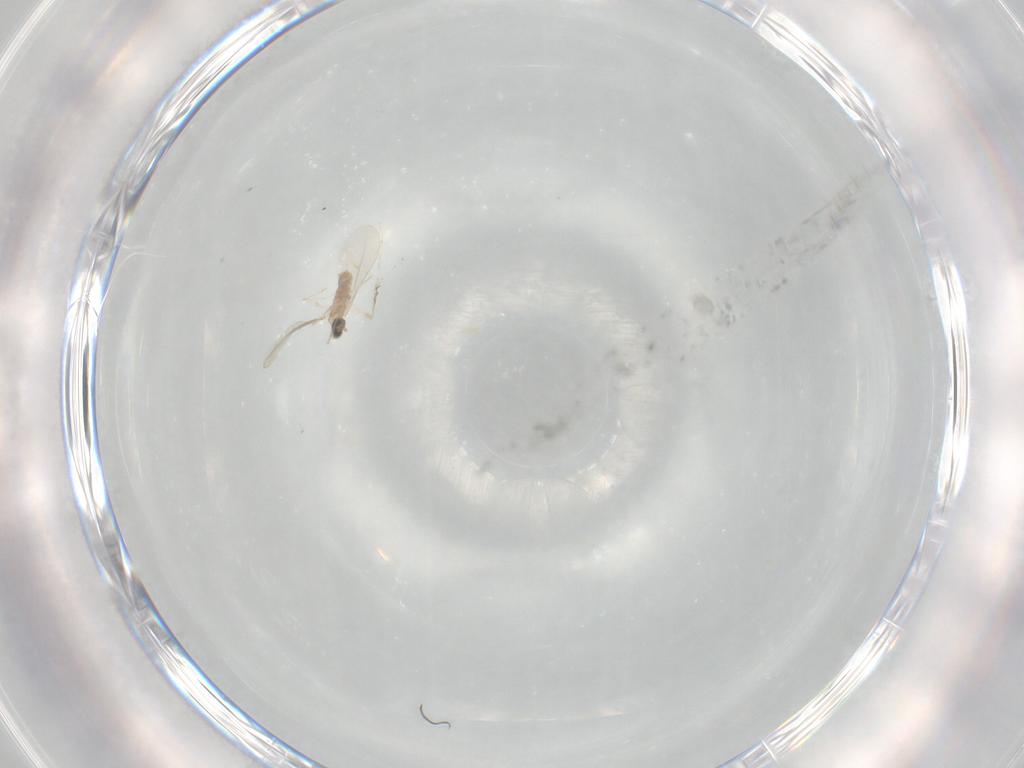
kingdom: Animalia
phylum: Arthropoda
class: Insecta
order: Diptera
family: Cecidomyiidae
